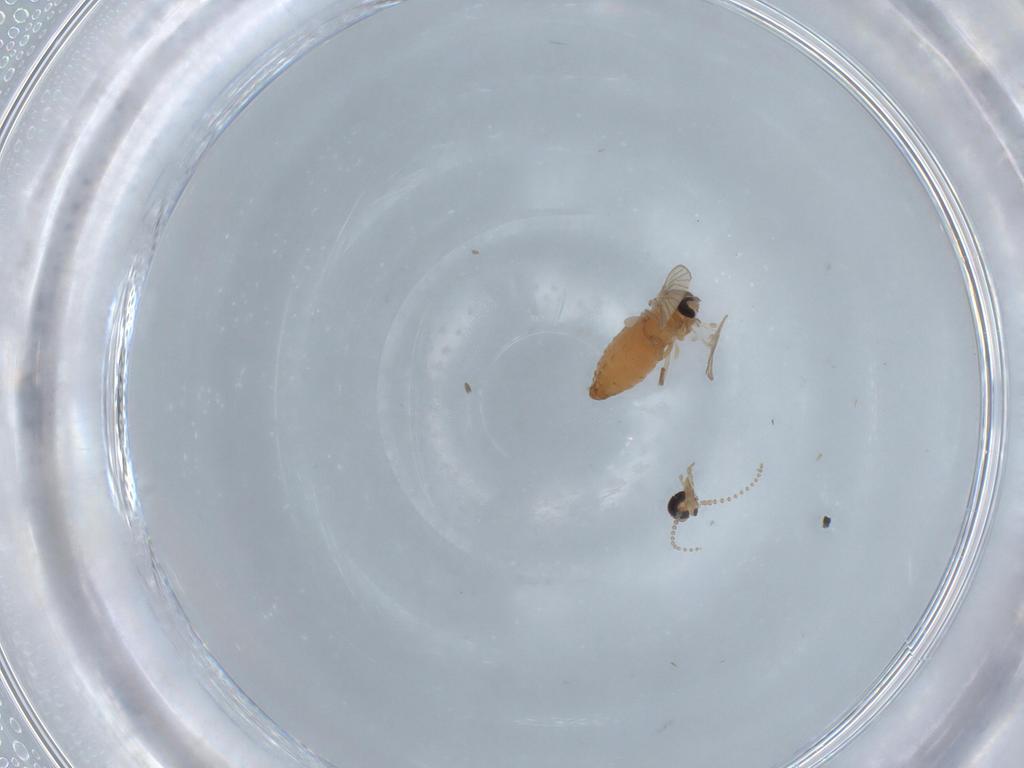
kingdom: Animalia
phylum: Arthropoda
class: Insecta
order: Diptera
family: Psychodidae
